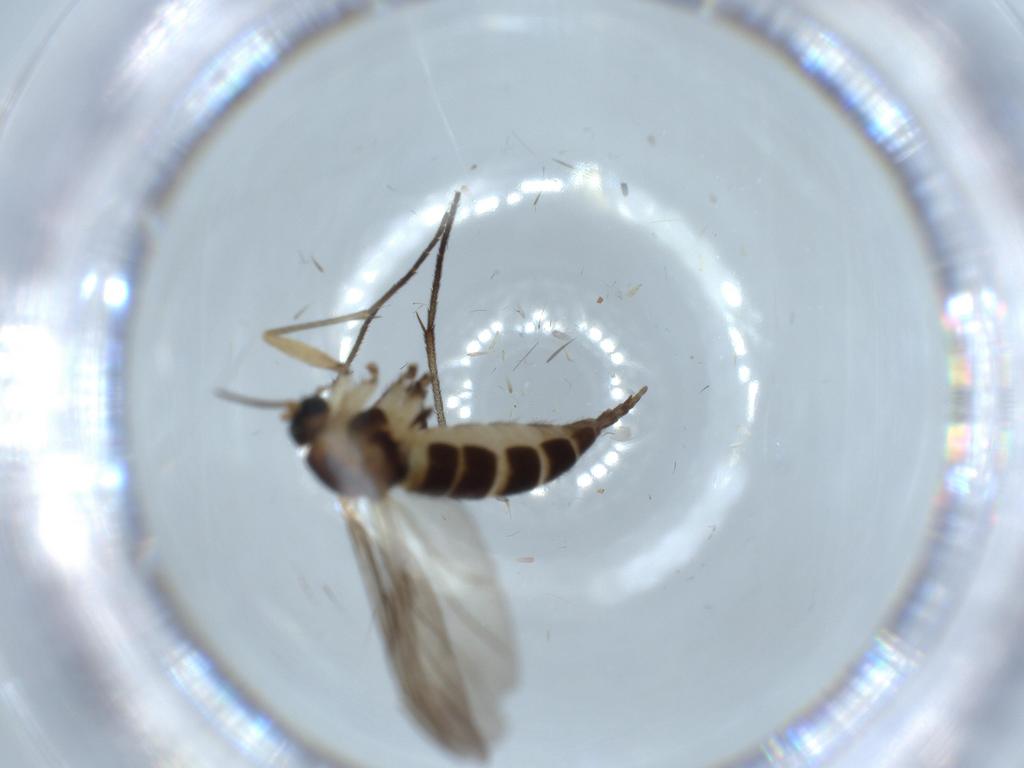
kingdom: Animalia
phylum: Arthropoda
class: Insecta
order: Diptera
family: Sciaridae
